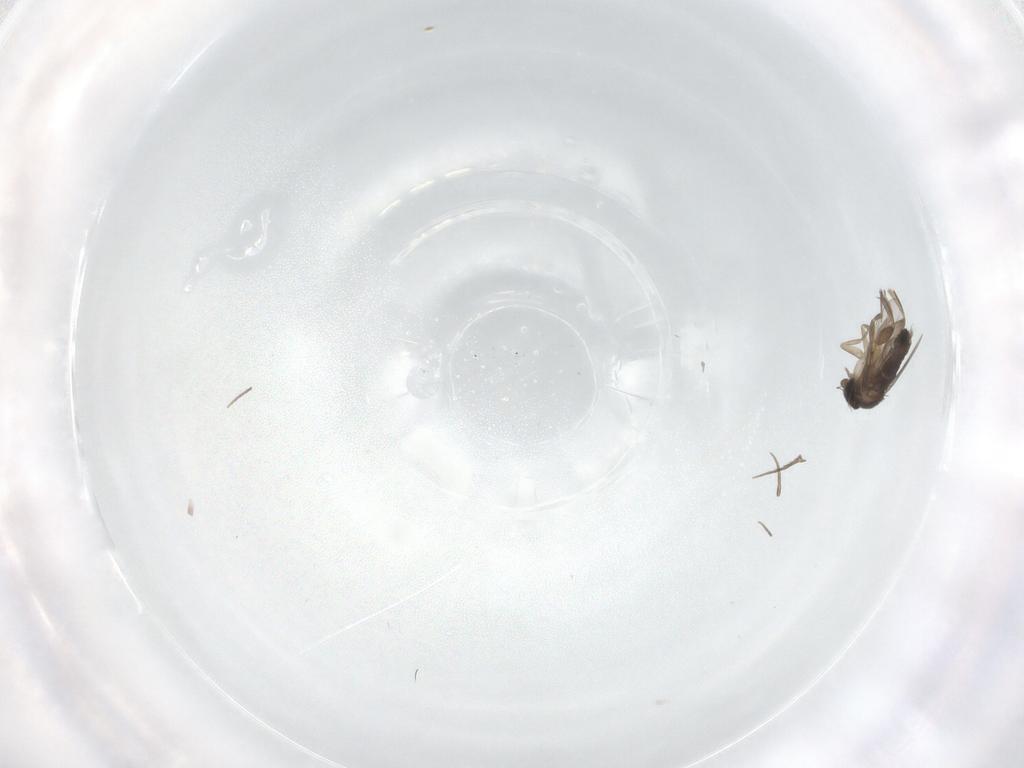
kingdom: Animalia
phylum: Arthropoda
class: Insecta
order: Diptera
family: Phoridae
